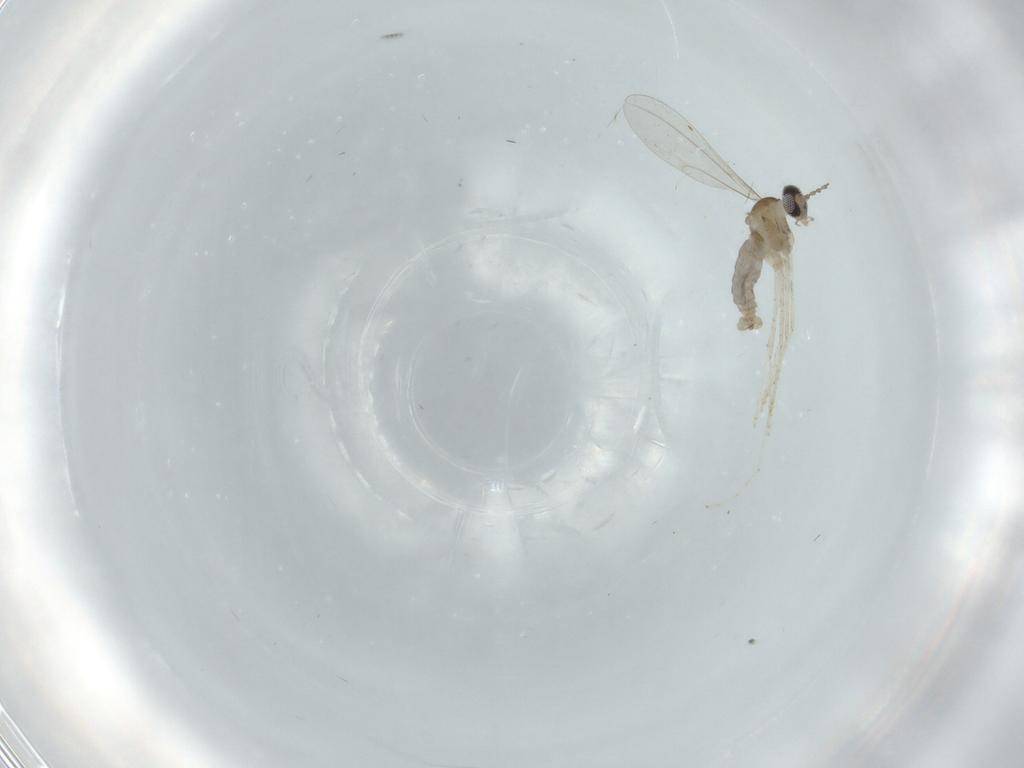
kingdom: Animalia
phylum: Arthropoda
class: Insecta
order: Diptera
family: Cecidomyiidae
